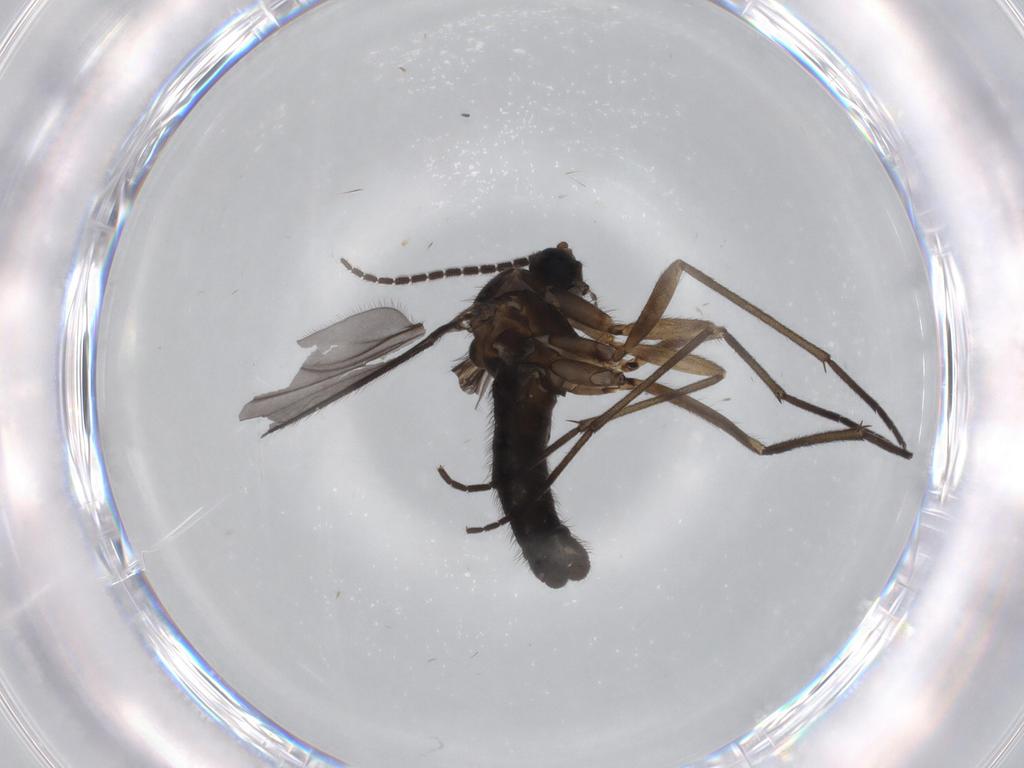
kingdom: Animalia
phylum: Arthropoda
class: Insecta
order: Diptera
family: Sciaridae
